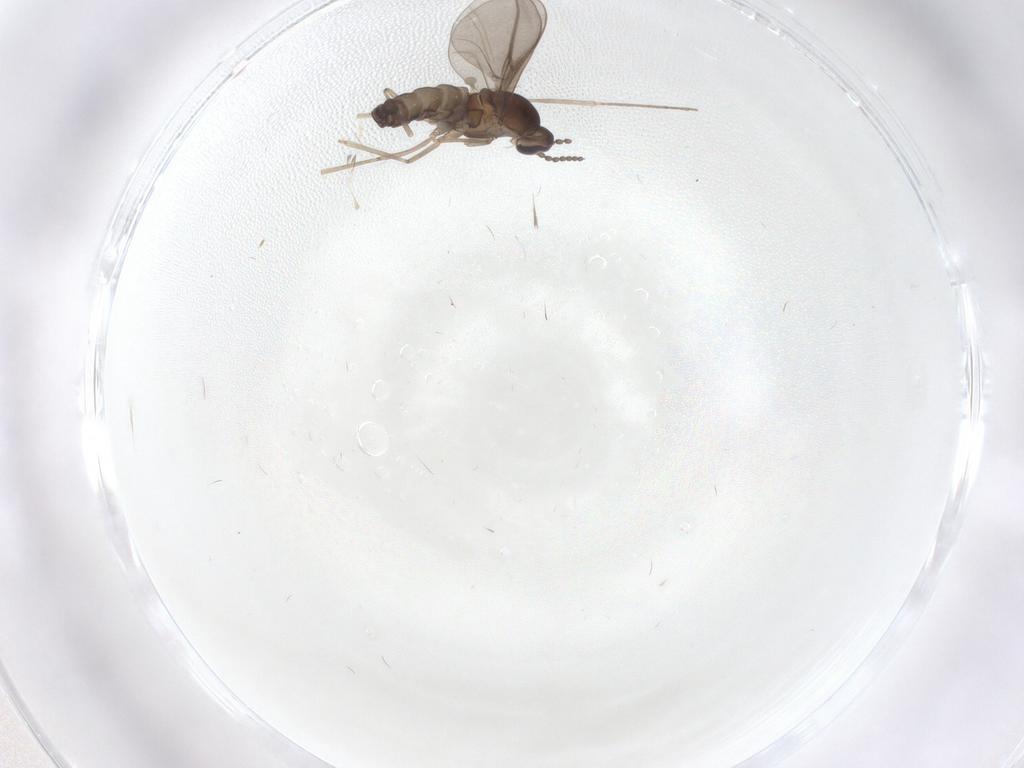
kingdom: Animalia
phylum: Arthropoda
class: Insecta
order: Diptera
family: Cecidomyiidae
